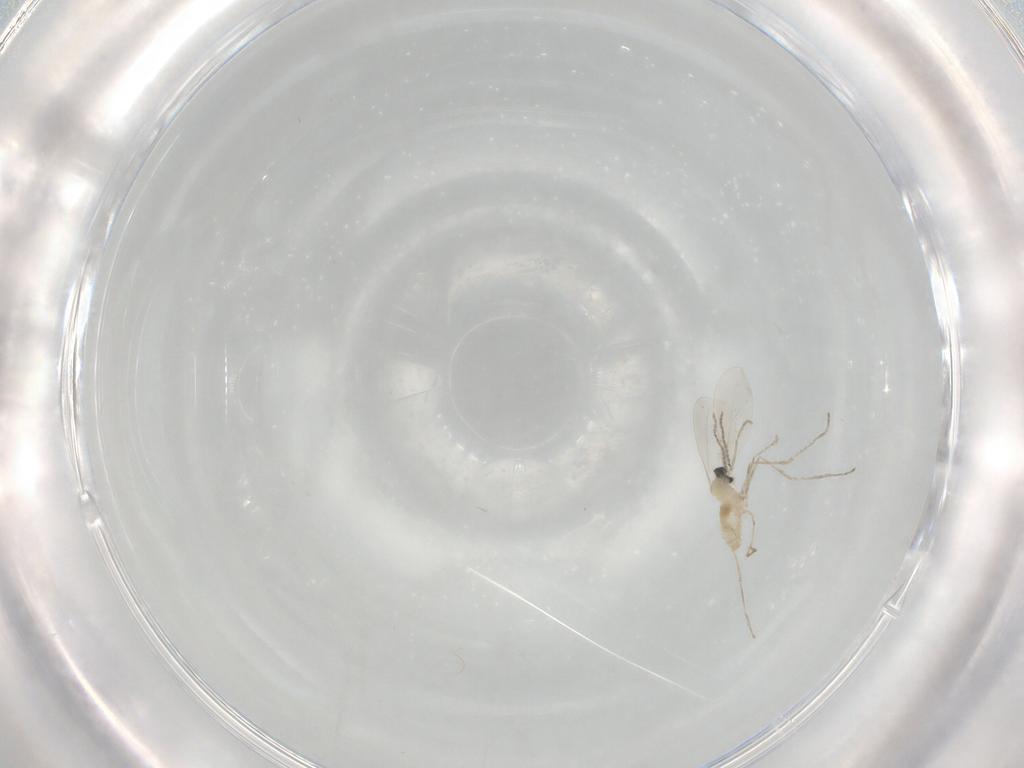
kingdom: Animalia
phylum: Arthropoda
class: Insecta
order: Diptera
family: Cecidomyiidae
